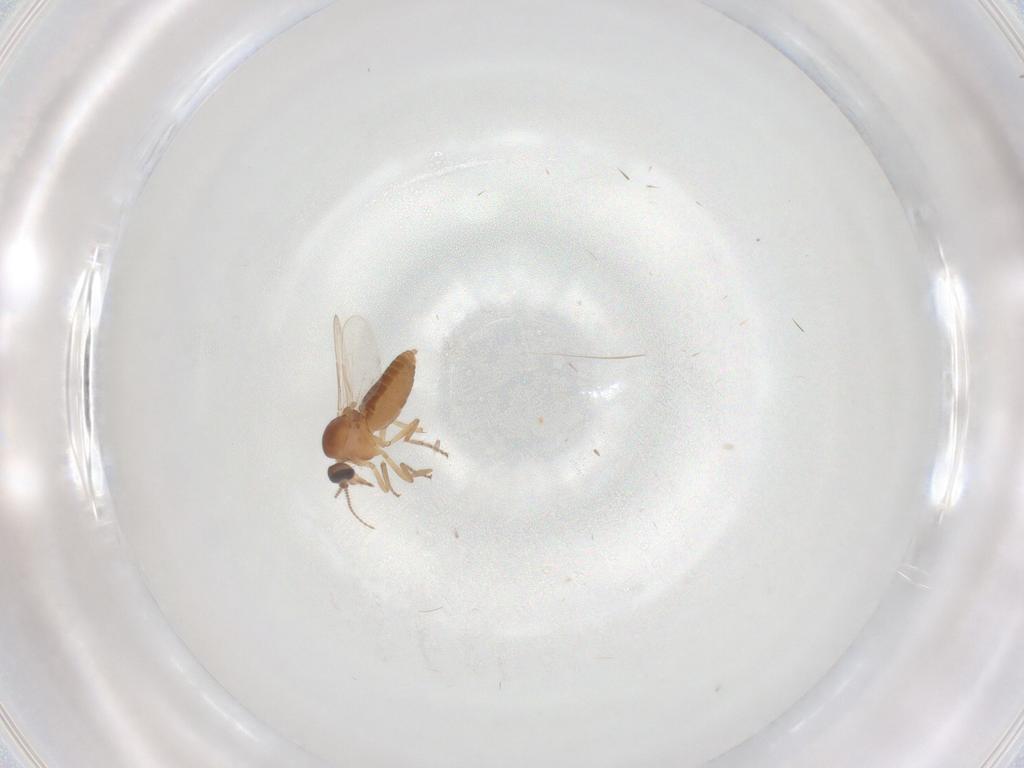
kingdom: Animalia
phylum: Arthropoda
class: Insecta
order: Diptera
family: Ceratopogonidae
